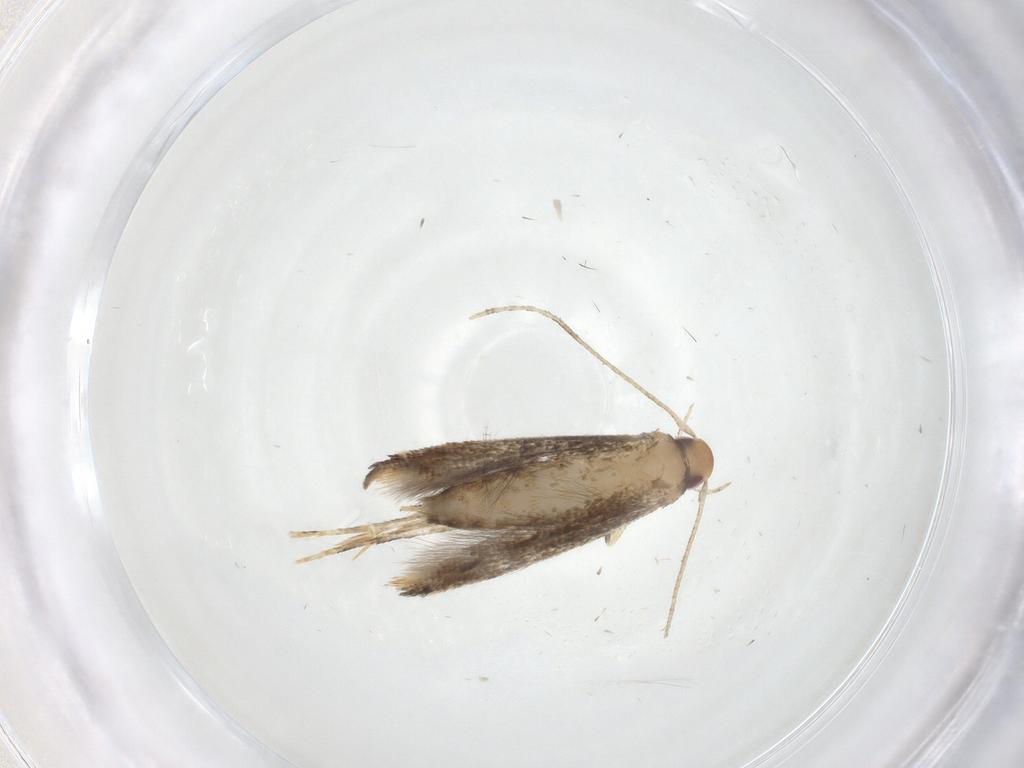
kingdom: Animalia
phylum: Arthropoda
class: Insecta
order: Lepidoptera
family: Momphidae
